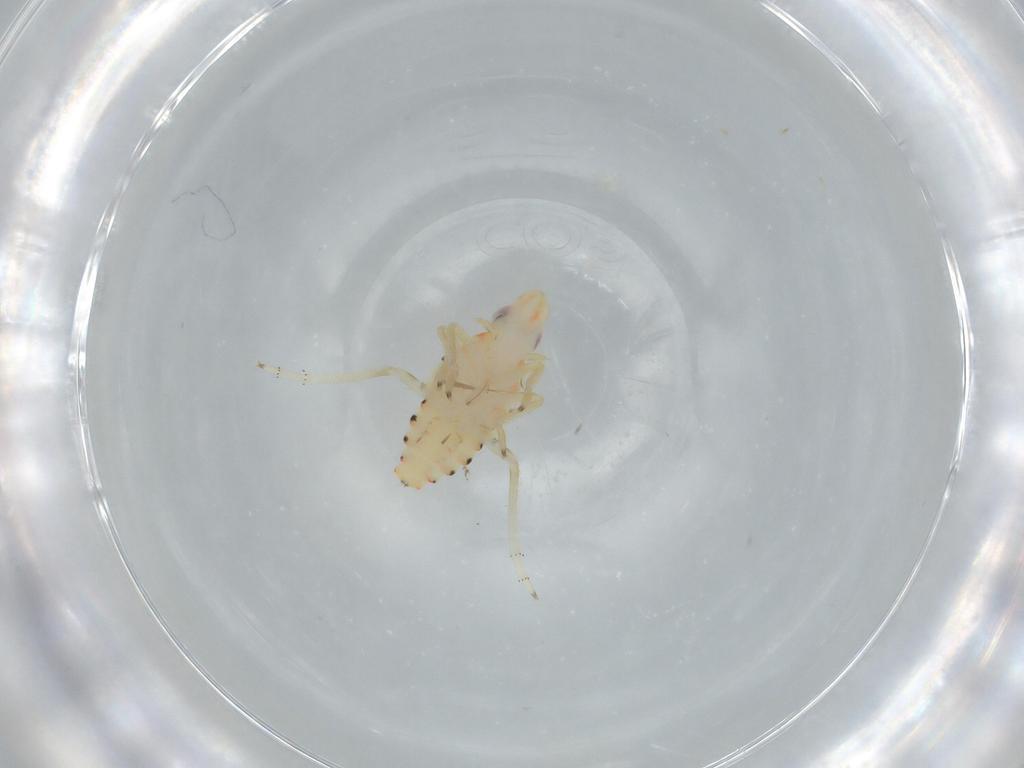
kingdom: Animalia
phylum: Arthropoda
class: Insecta
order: Hemiptera
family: Tropiduchidae
